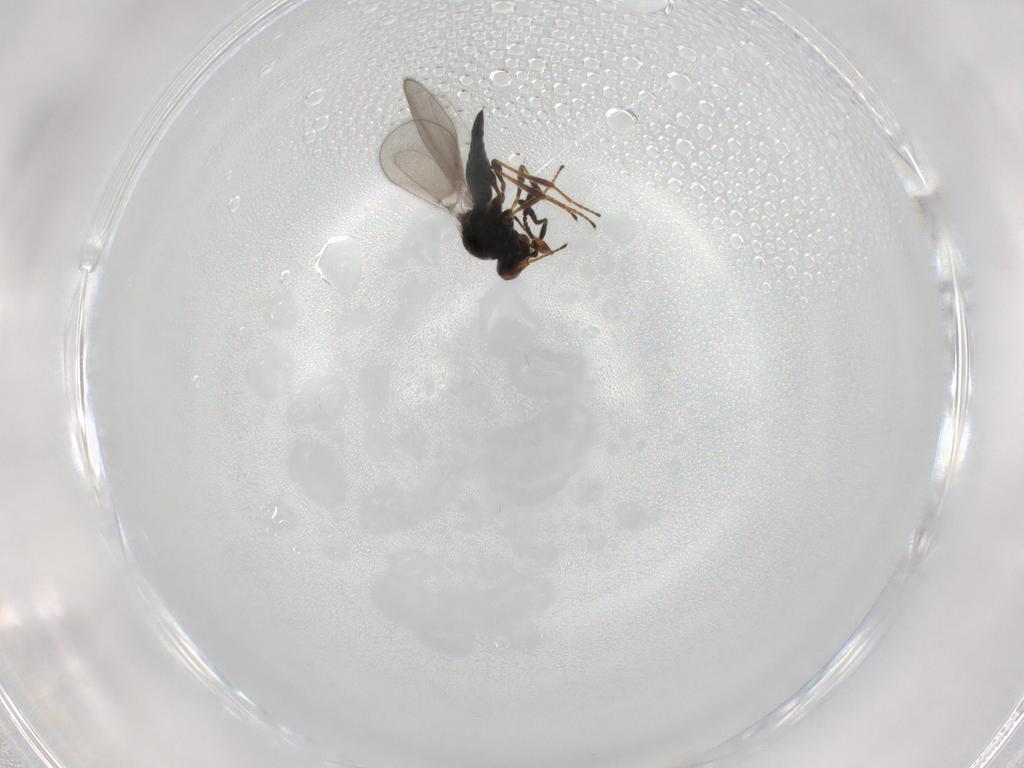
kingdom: Animalia
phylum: Arthropoda
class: Insecta
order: Hymenoptera
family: Platygastridae
